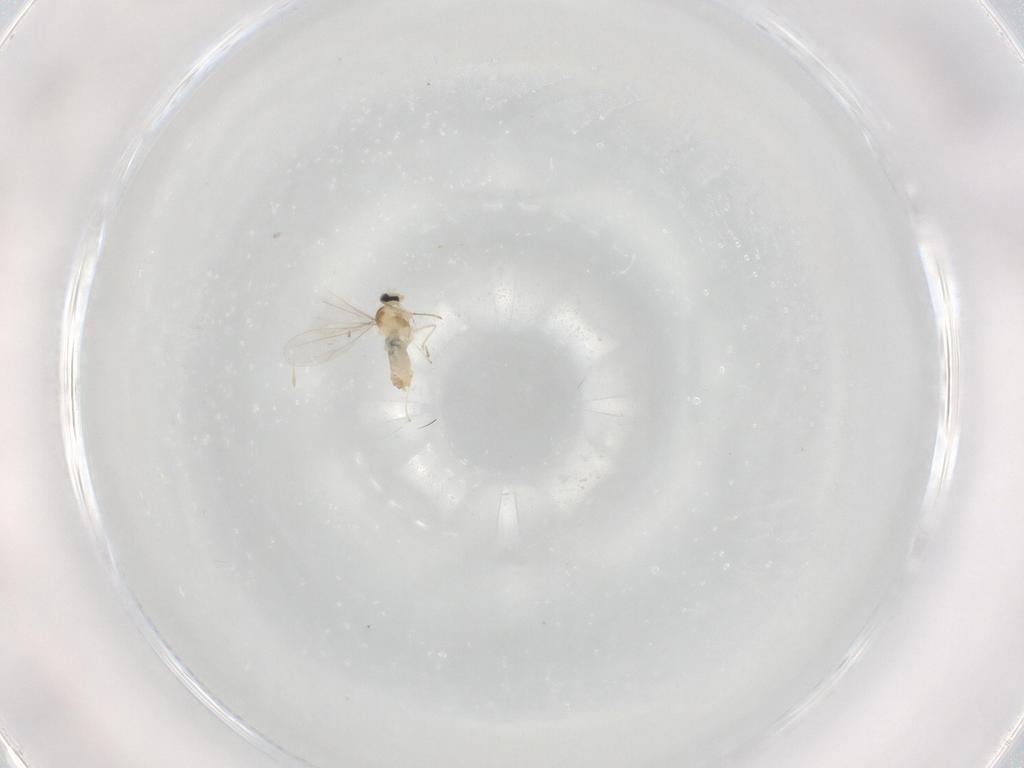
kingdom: Animalia
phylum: Arthropoda
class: Insecta
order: Diptera
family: Cecidomyiidae
